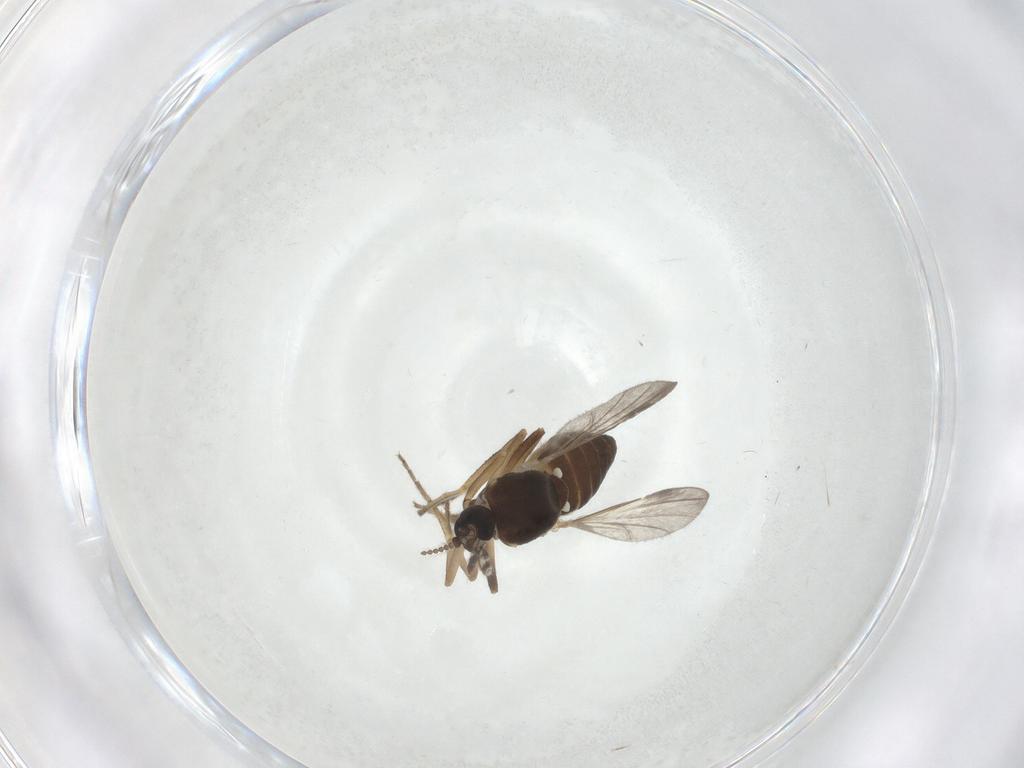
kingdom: Animalia
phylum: Arthropoda
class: Insecta
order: Diptera
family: Ceratopogonidae
